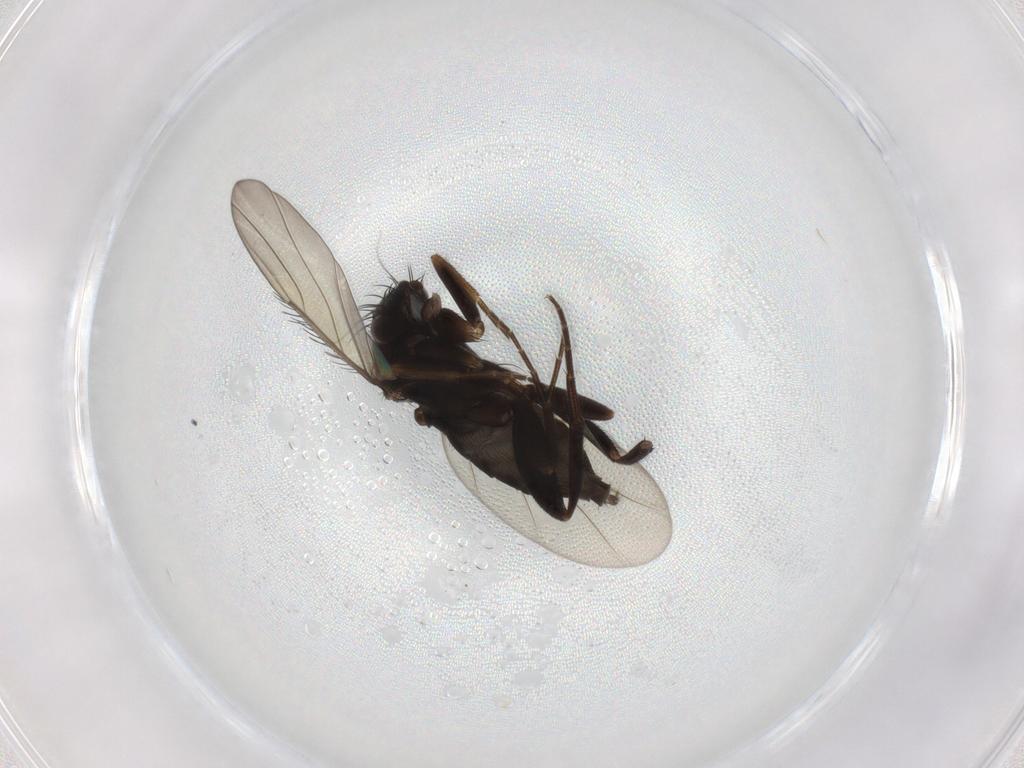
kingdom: Animalia
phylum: Arthropoda
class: Insecta
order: Diptera
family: Phoridae
